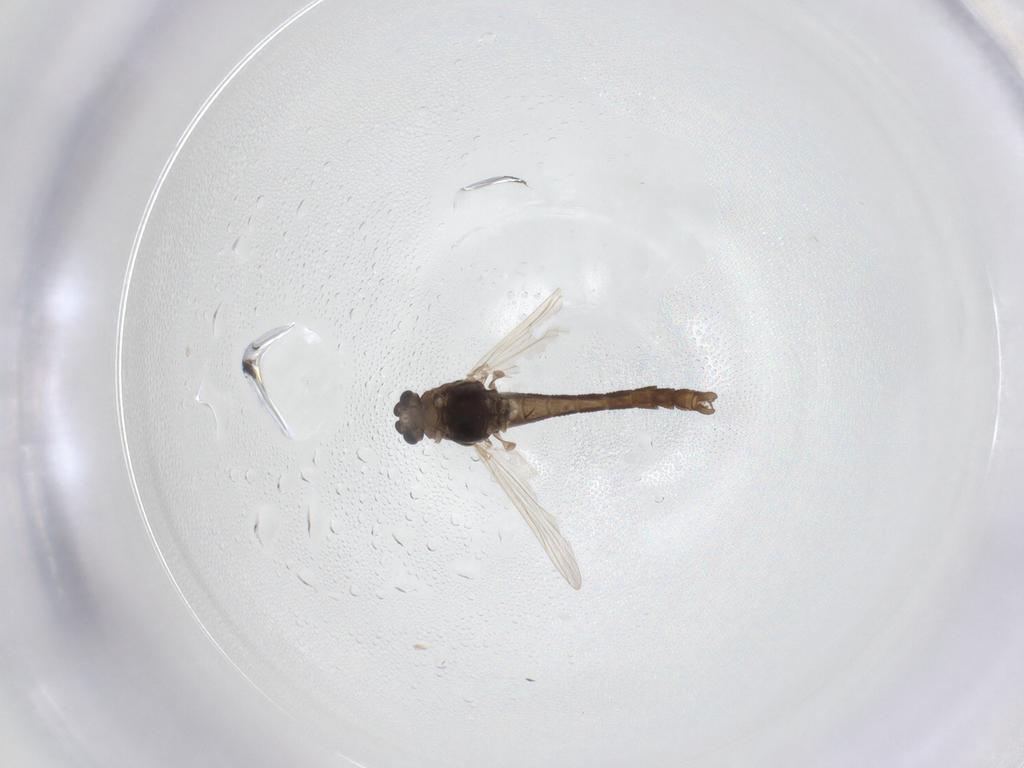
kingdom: Animalia
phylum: Arthropoda
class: Insecta
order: Diptera
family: Chironomidae
